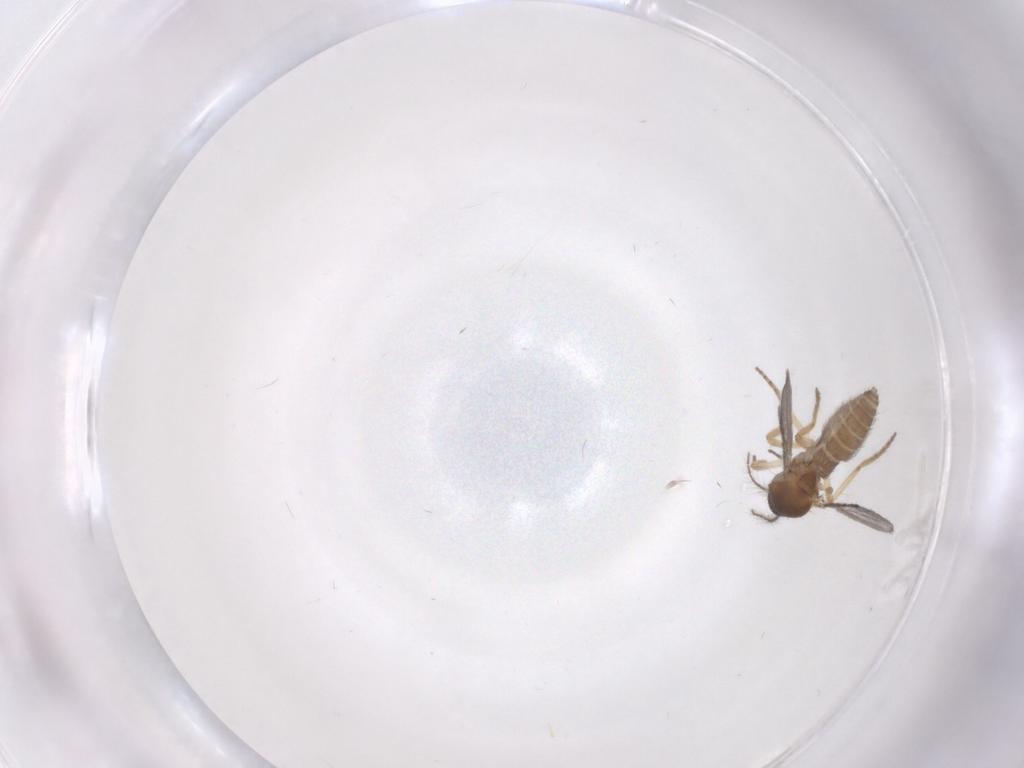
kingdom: Animalia
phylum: Arthropoda
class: Insecta
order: Diptera
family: Ceratopogonidae
